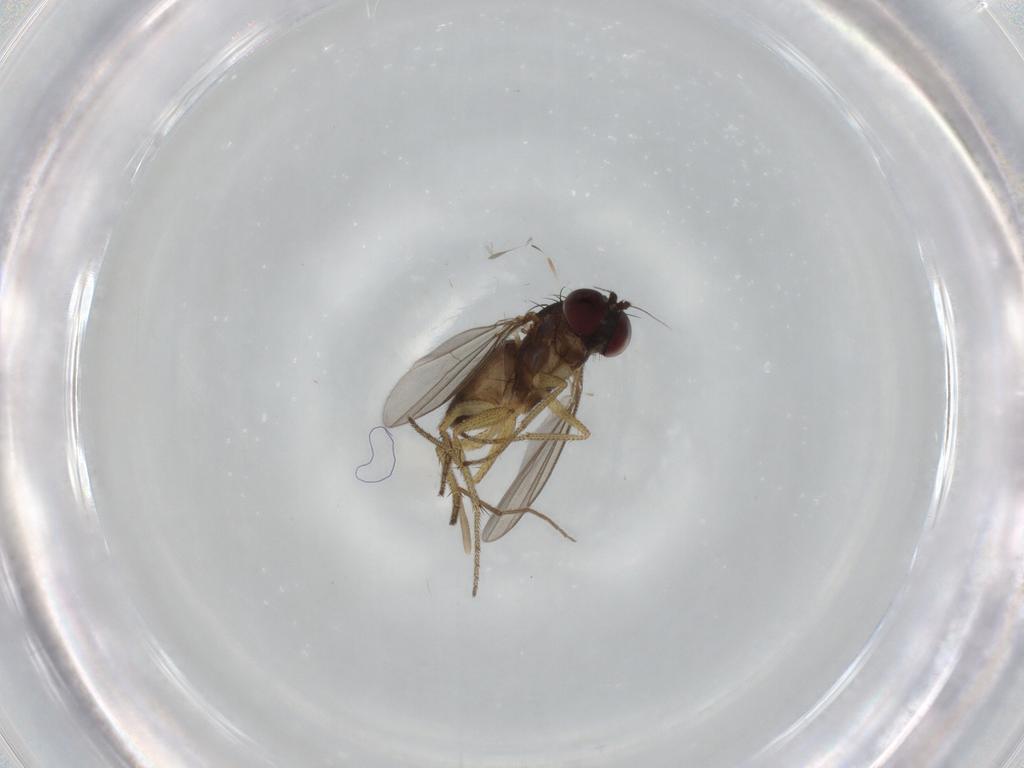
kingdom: Animalia
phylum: Arthropoda
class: Insecta
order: Diptera
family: Dolichopodidae
